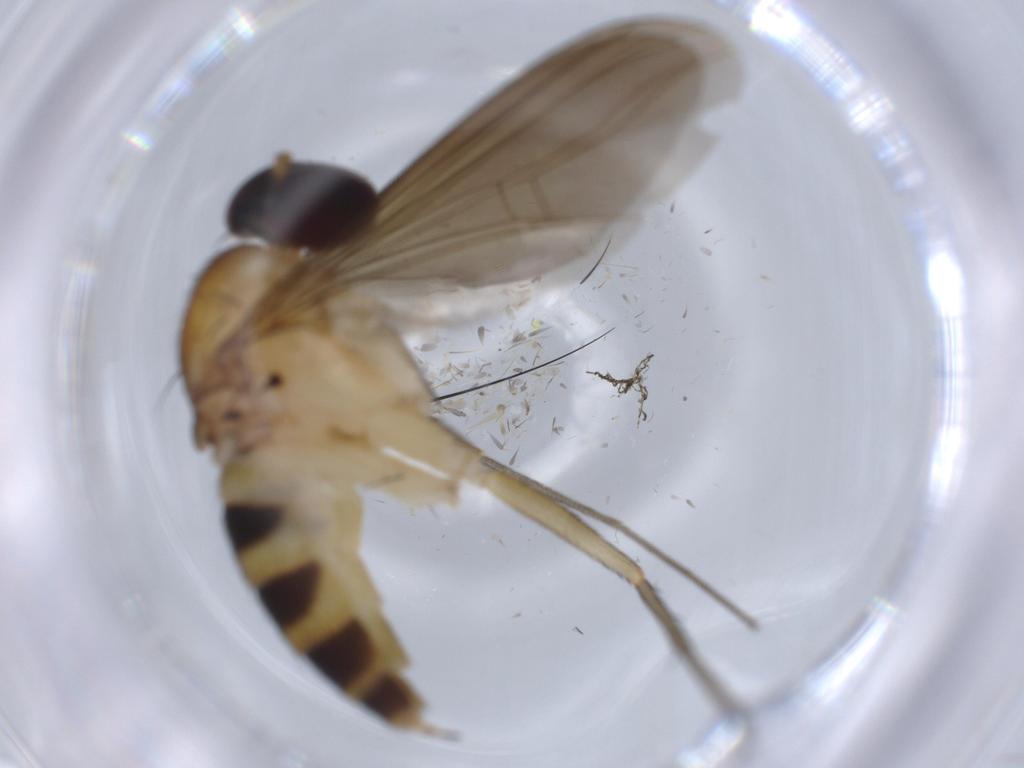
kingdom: Animalia
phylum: Arthropoda
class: Insecta
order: Diptera
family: Dolichopodidae
